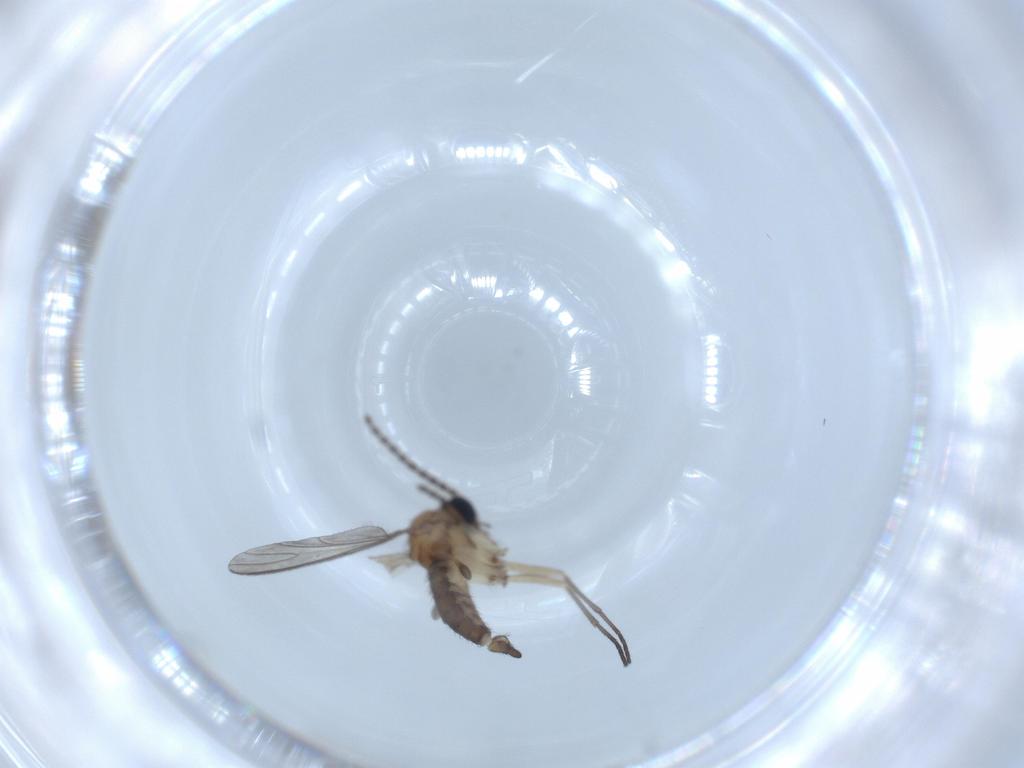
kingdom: Animalia
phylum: Arthropoda
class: Insecta
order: Diptera
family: Sciaridae
